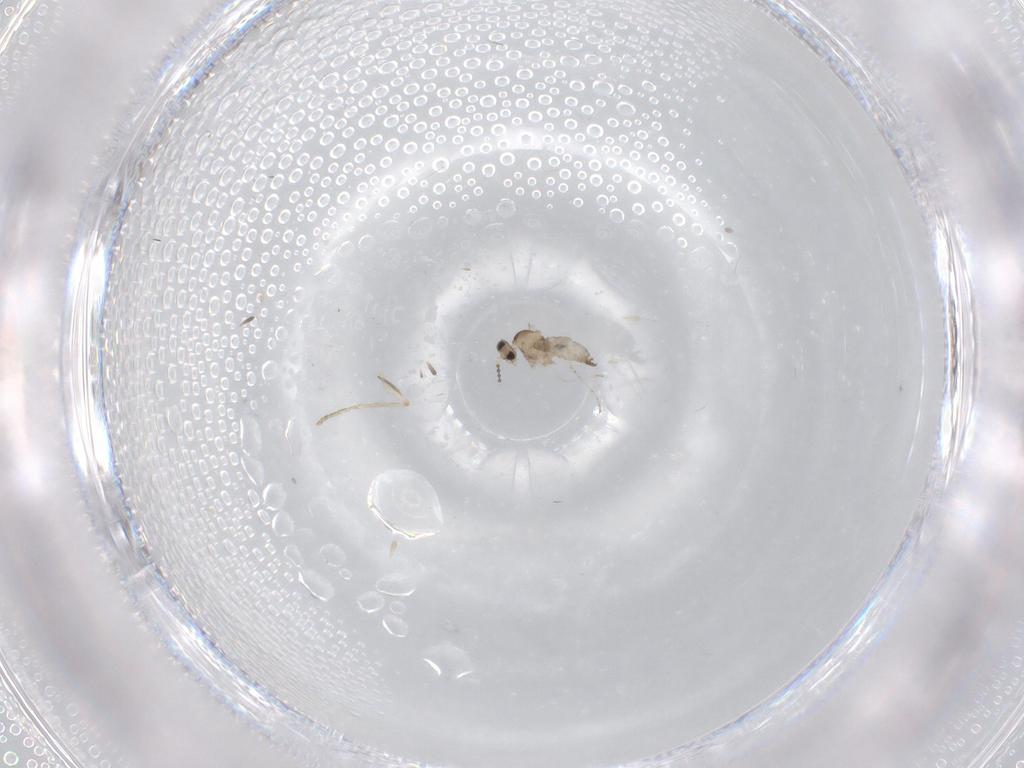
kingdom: Animalia
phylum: Arthropoda
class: Insecta
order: Diptera
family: Cecidomyiidae
